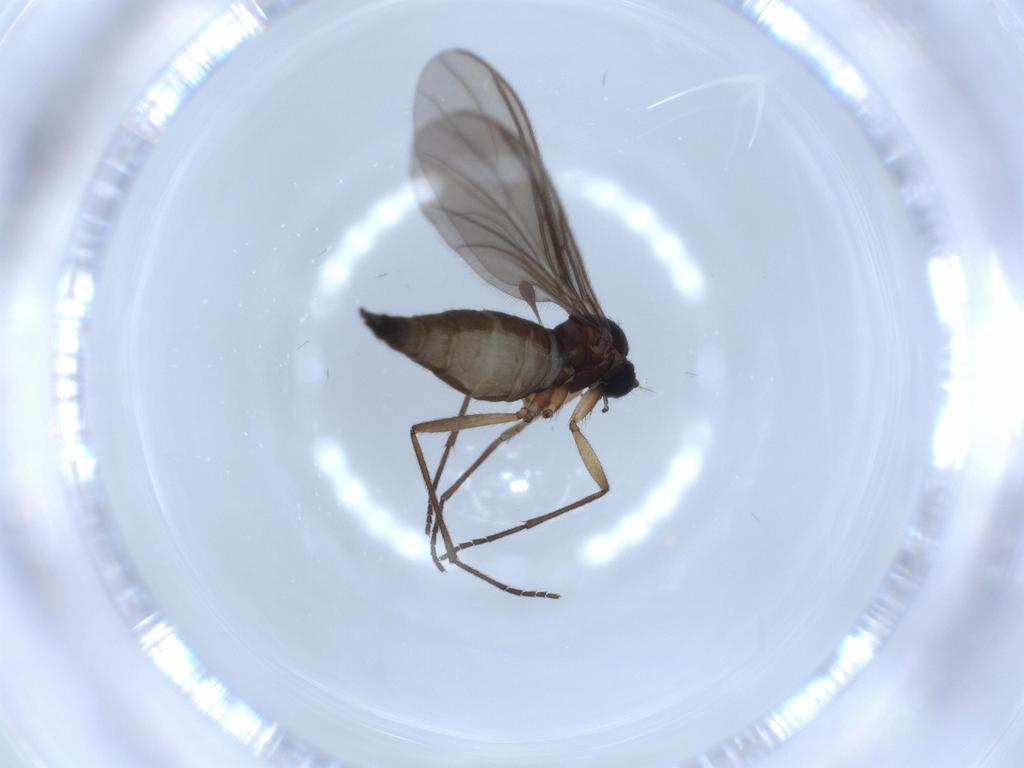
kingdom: Animalia
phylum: Arthropoda
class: Insecta
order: Diptera
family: Sciaridae
